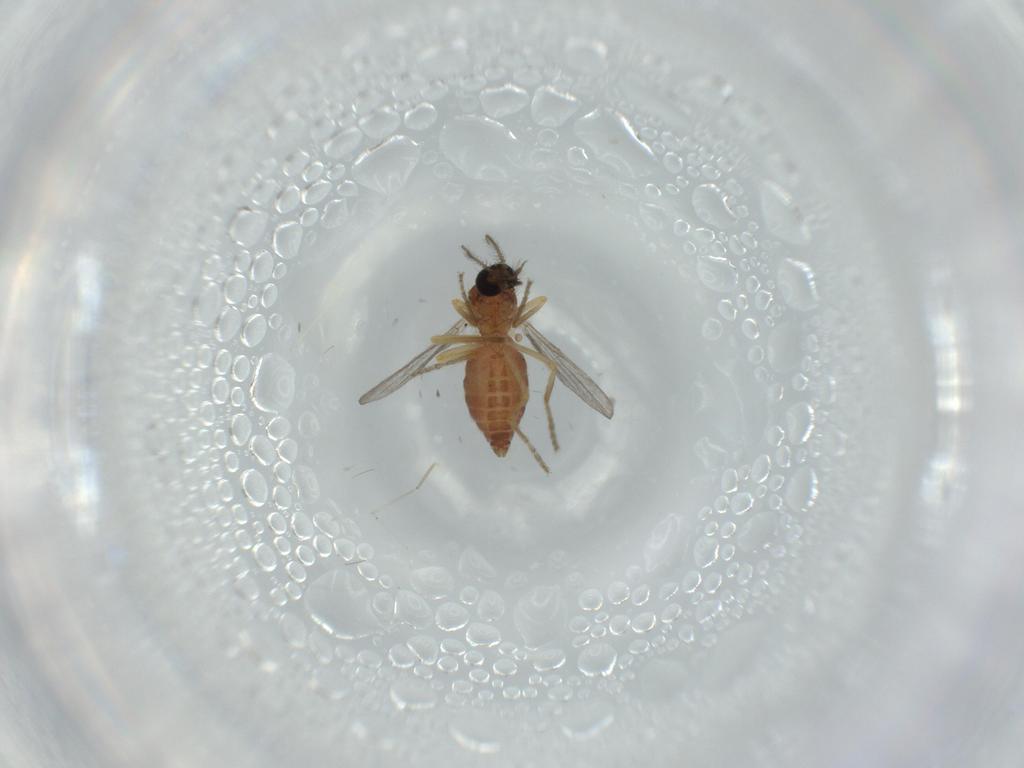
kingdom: Animalia
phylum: Arthropoda
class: Insecta
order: Diptera
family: Ceratopogonidae
